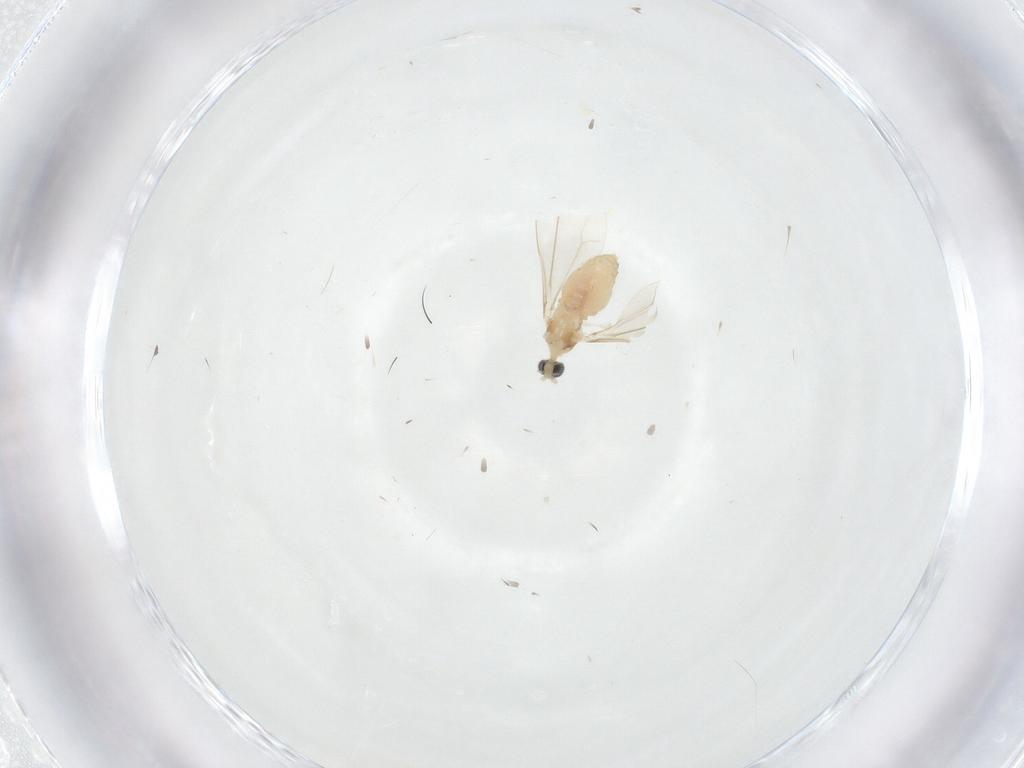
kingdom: Animalia
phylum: Arthropoda
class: Insecta
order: Diptera
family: Cecidomyiidae
